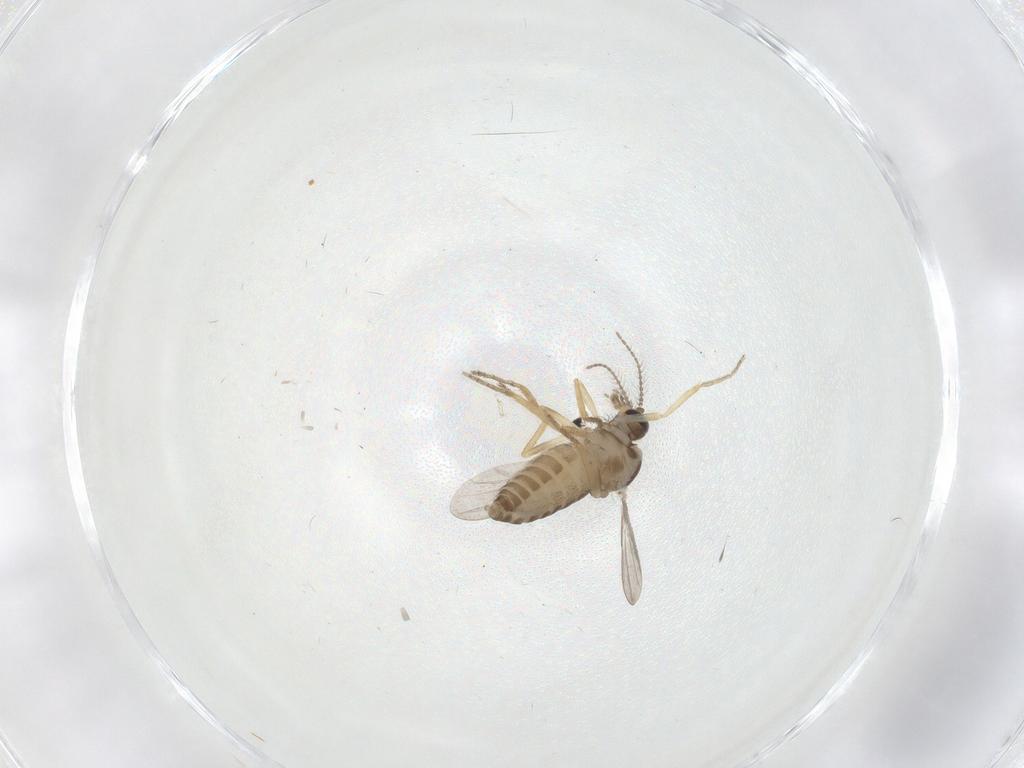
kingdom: Animalia
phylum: Arthropoda
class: Insecta
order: Diptera
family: Ceratopogonidae
